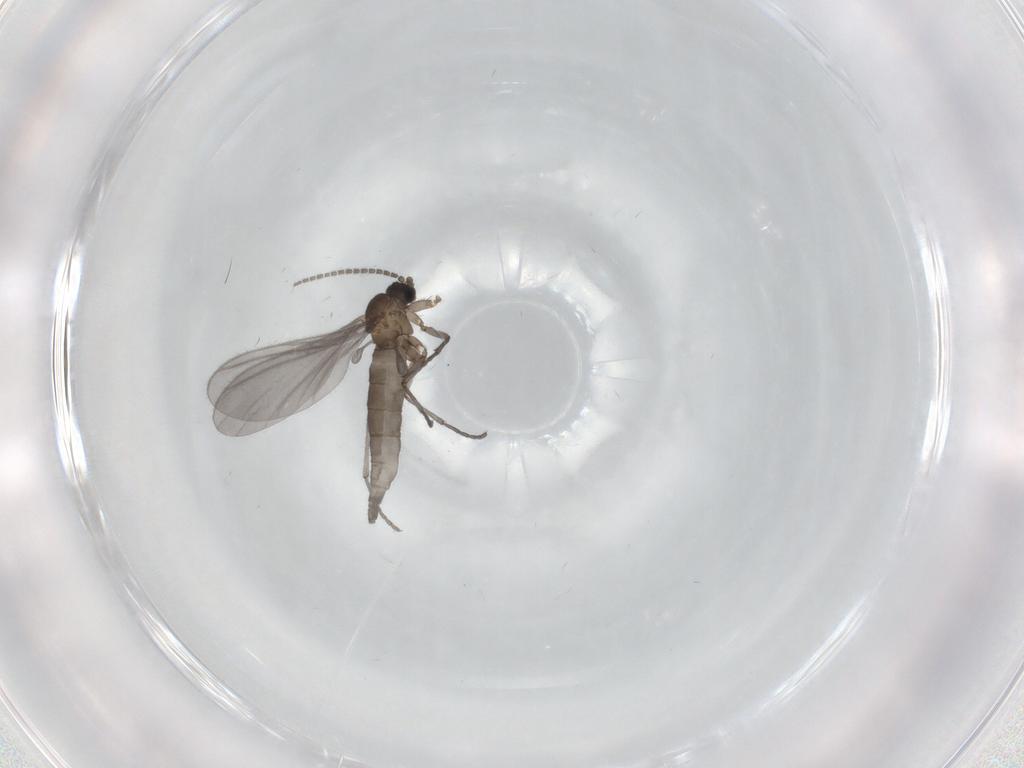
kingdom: Animalia
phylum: Arthropoda
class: Insecta
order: Diptera
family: Sciaridae
